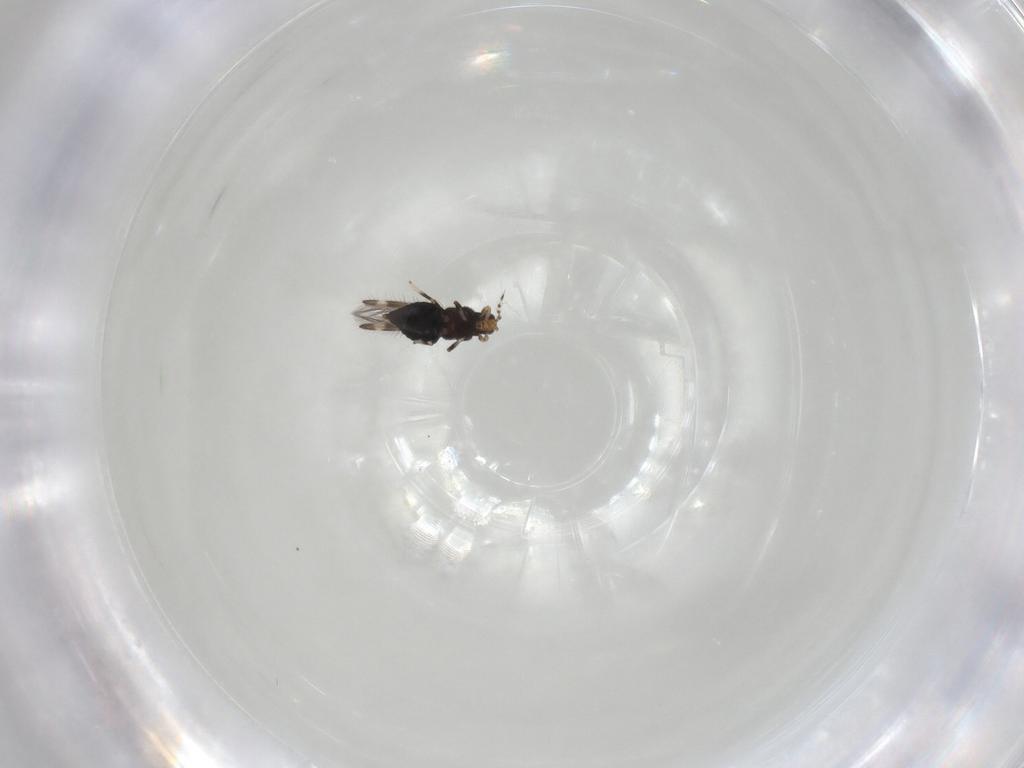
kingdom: Animalia
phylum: Arthropoda
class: Insecta
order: Thysanoptera
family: Thripidae
